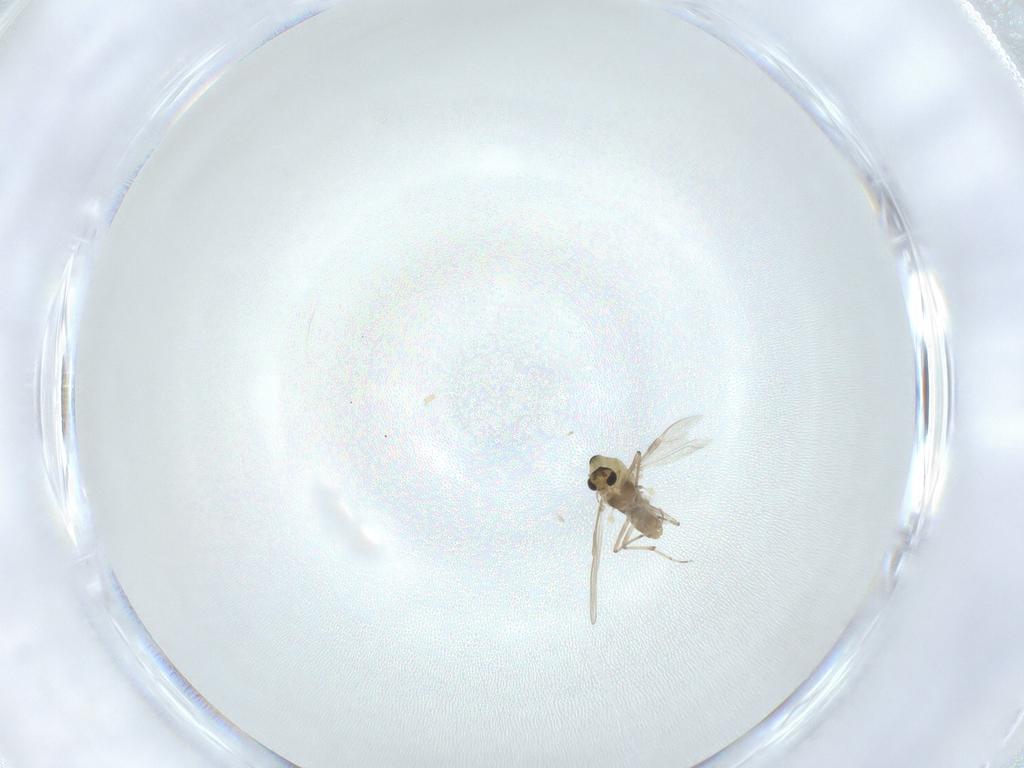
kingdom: Animalia
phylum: Arthropoda
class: Insecta
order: Diptera
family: Chironomidae
